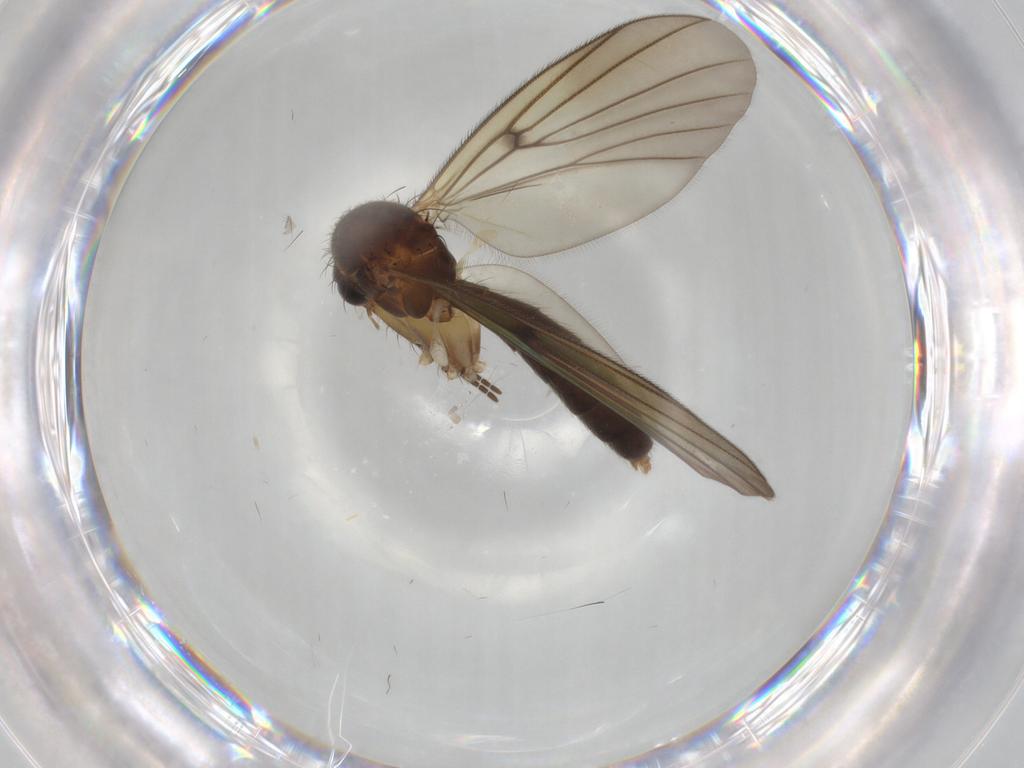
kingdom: Animalia
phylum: Arthropoda
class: Insecta
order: Diptera
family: Mycetophilidae
